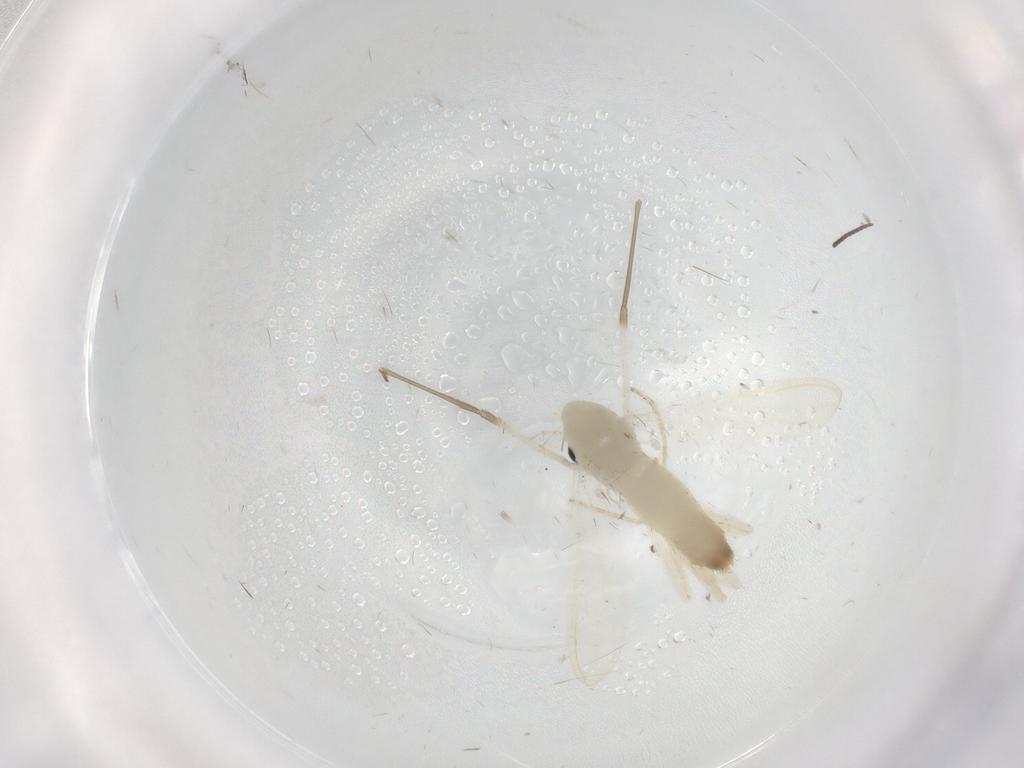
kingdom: Animalia
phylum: Arthropoda
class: Insecta
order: Diptera
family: Chironomidae
